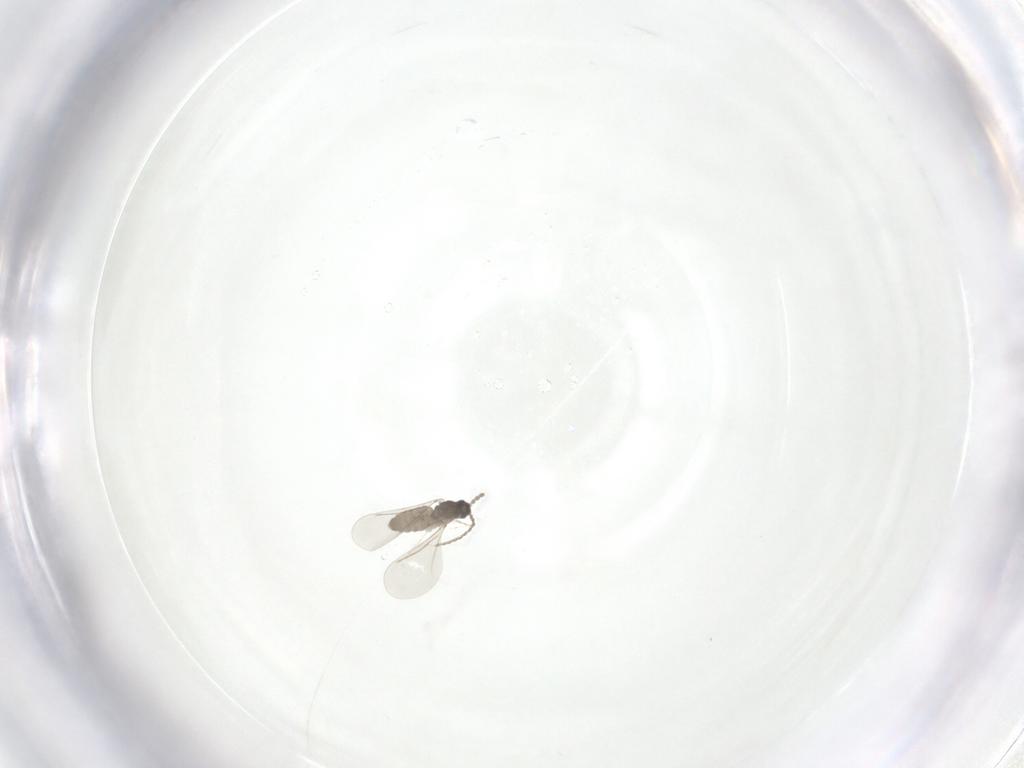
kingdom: Animalia
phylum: Arthropoda
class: Insecta
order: Diptera
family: Cecidomyiidae
